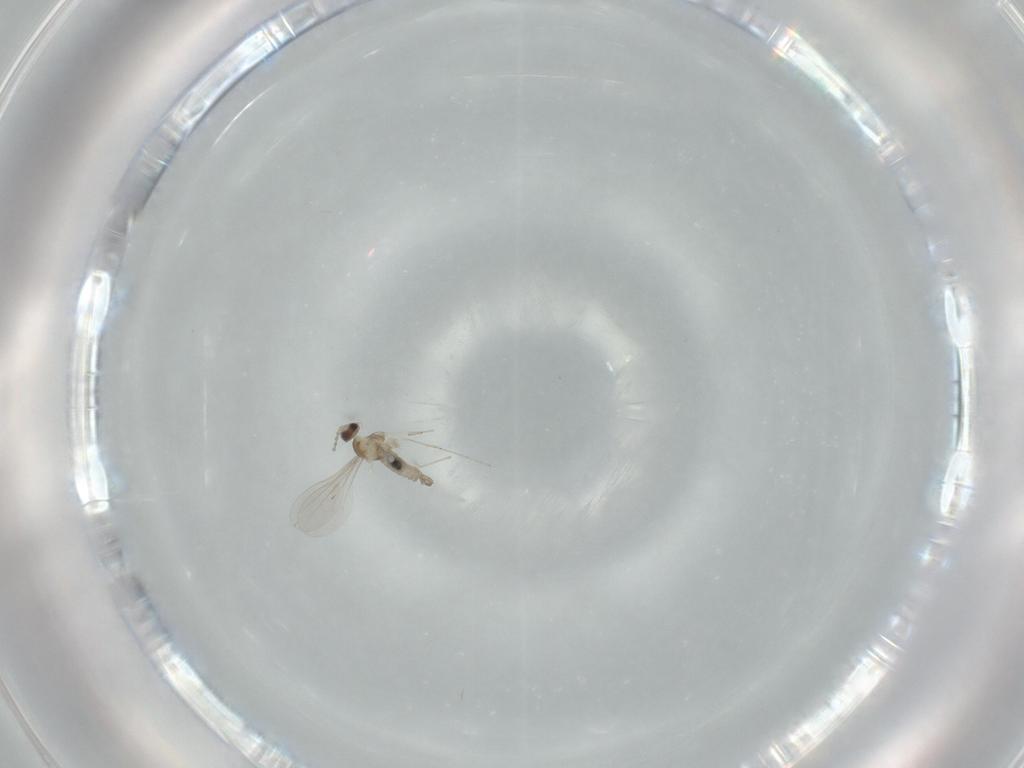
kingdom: Animalia
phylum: Arthropoda
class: Insecta
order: Diptera
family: Cecidomyiidae
